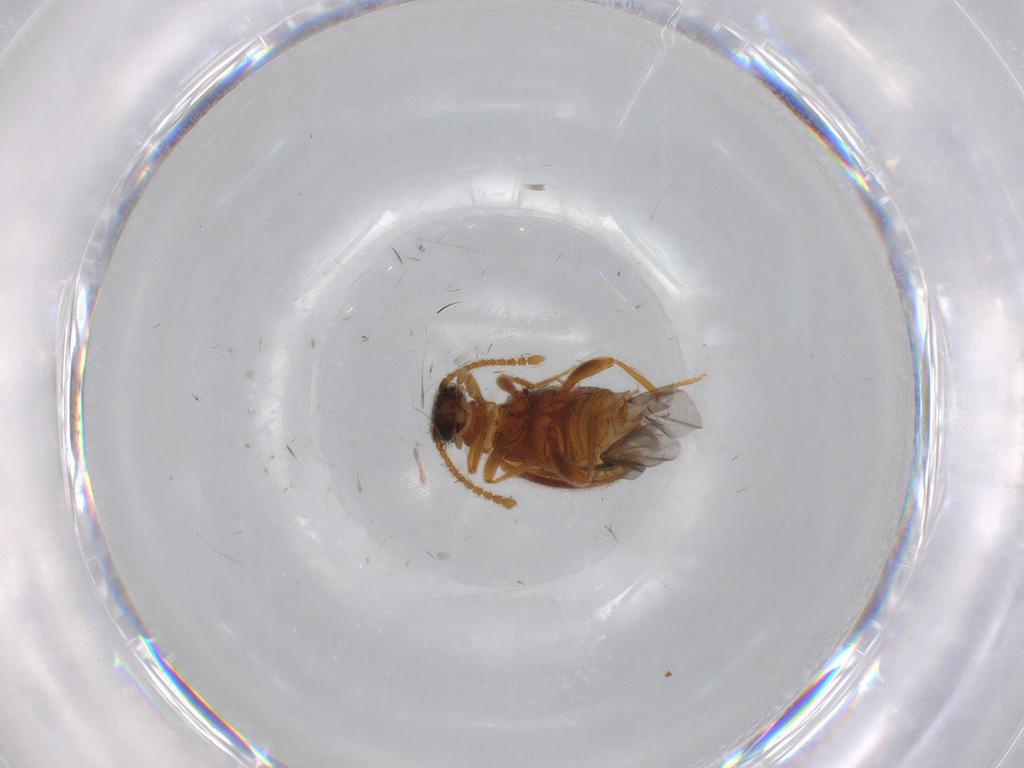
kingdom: Animalia
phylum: Arthropoda
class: Insecta
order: Coleoptera
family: Aderidae
